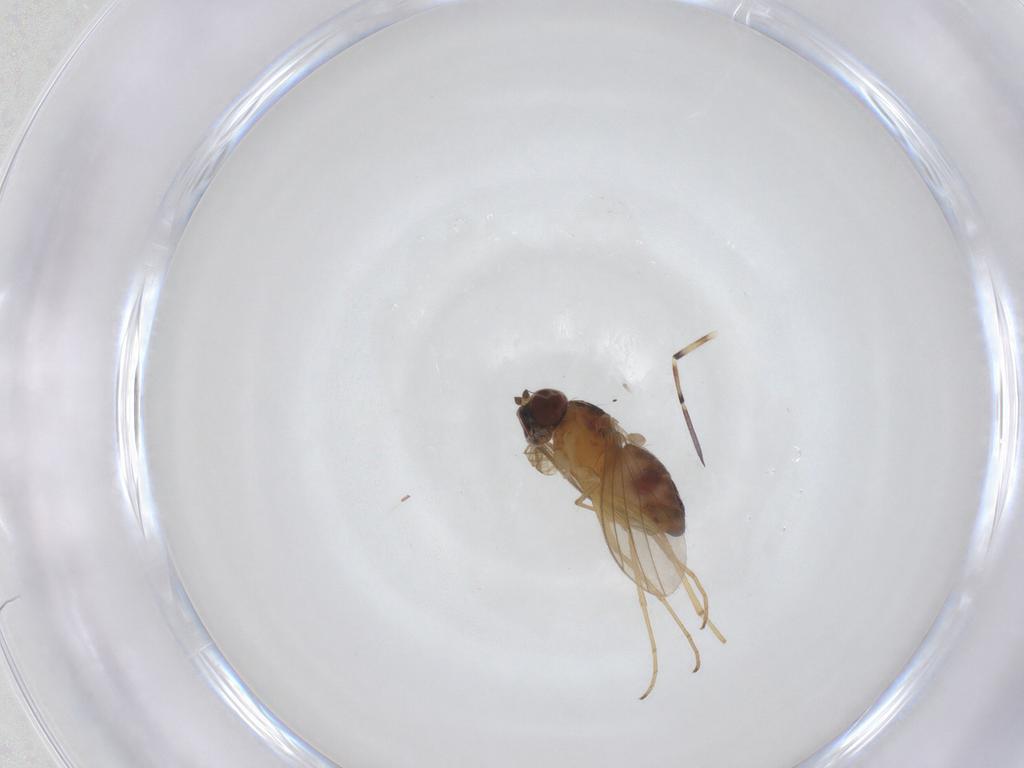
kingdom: Animalia
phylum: Arthropoda
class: Insecta
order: Diptera
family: Dolichopodidae
